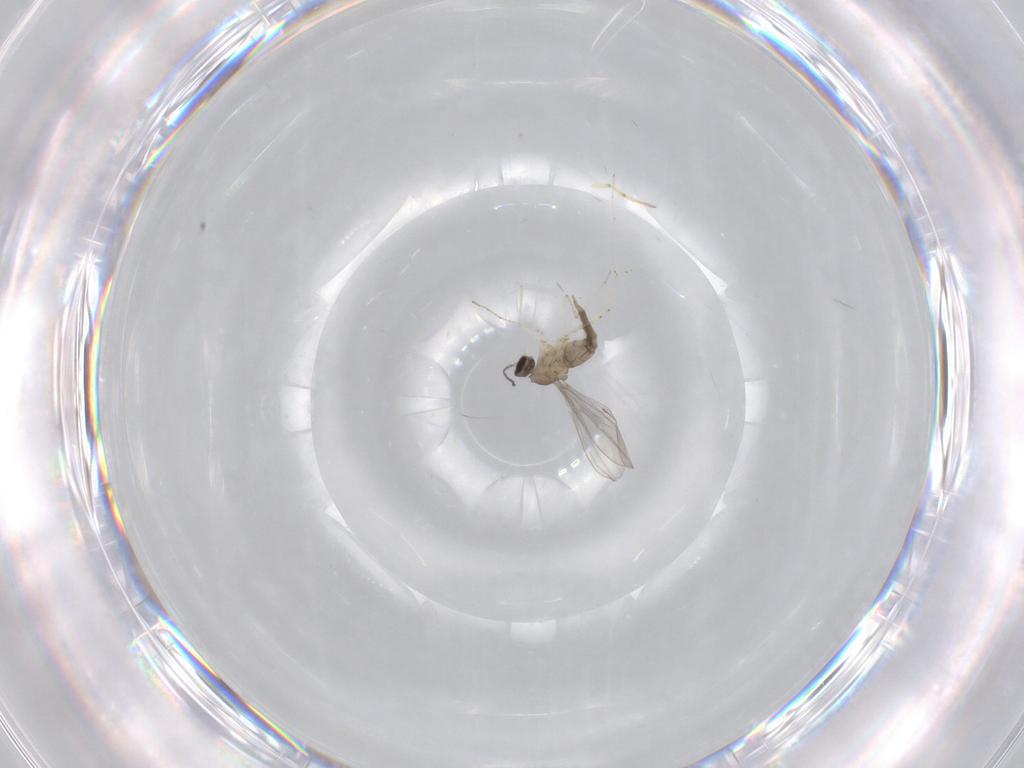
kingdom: Animalia
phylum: Arthropoda
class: Insecta
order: Diptera
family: Cecidomyiidae
